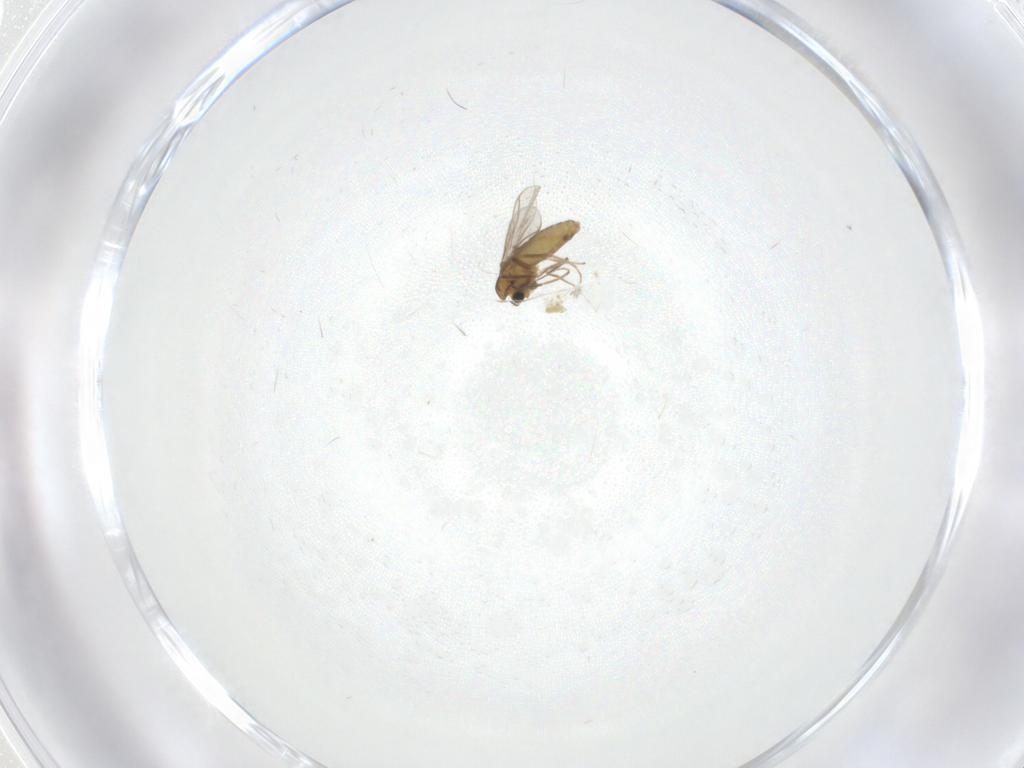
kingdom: Animalia
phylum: Arthropoda
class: Insecta
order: Diptera
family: Chironomidae
